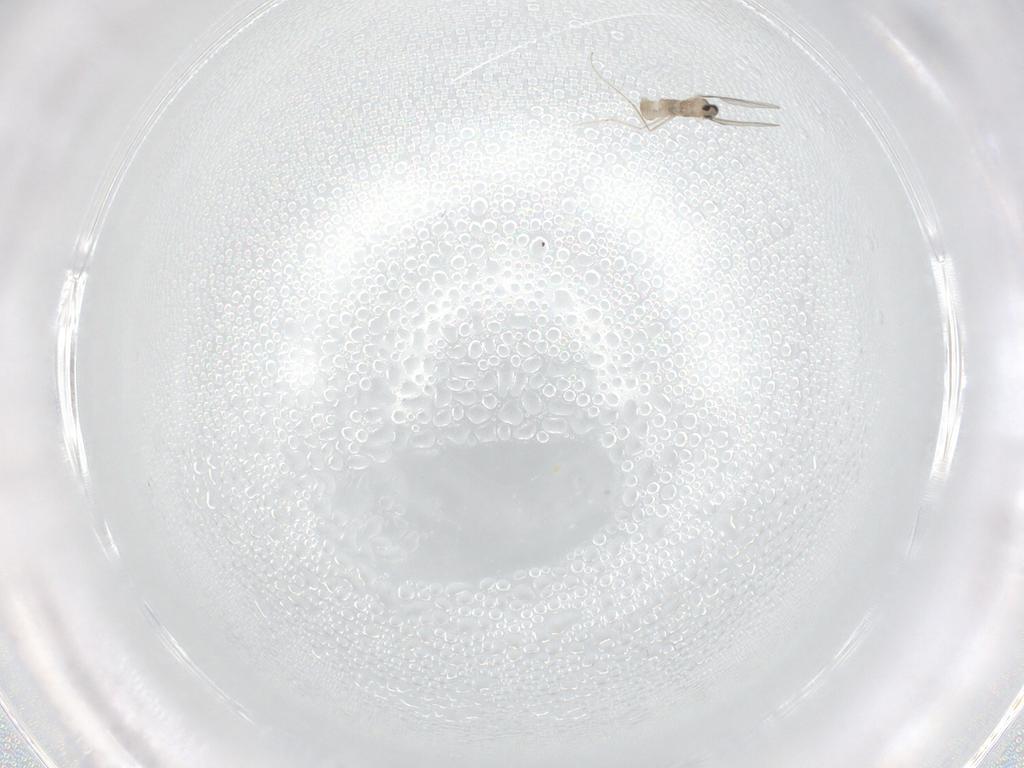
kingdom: Animalia
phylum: Arthropoda
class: Insecta
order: Diptera
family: Cecidomyiidae
